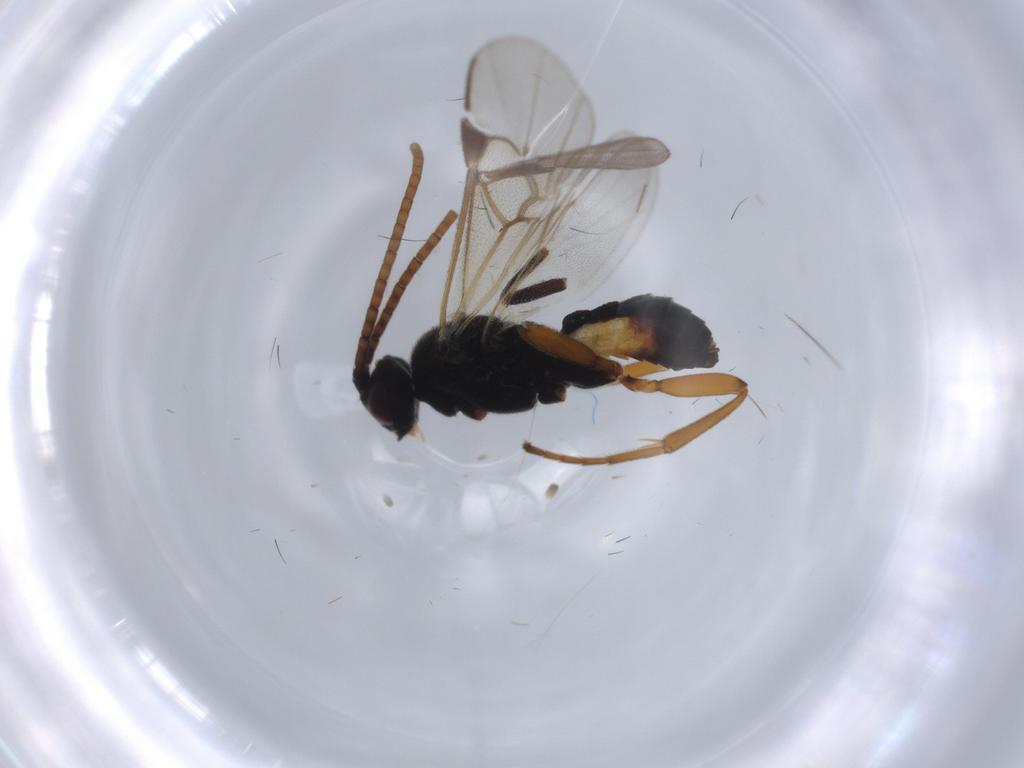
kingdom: Animalia
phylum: Arthropoda
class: Insecta
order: Hymenoptera
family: Braconidae
